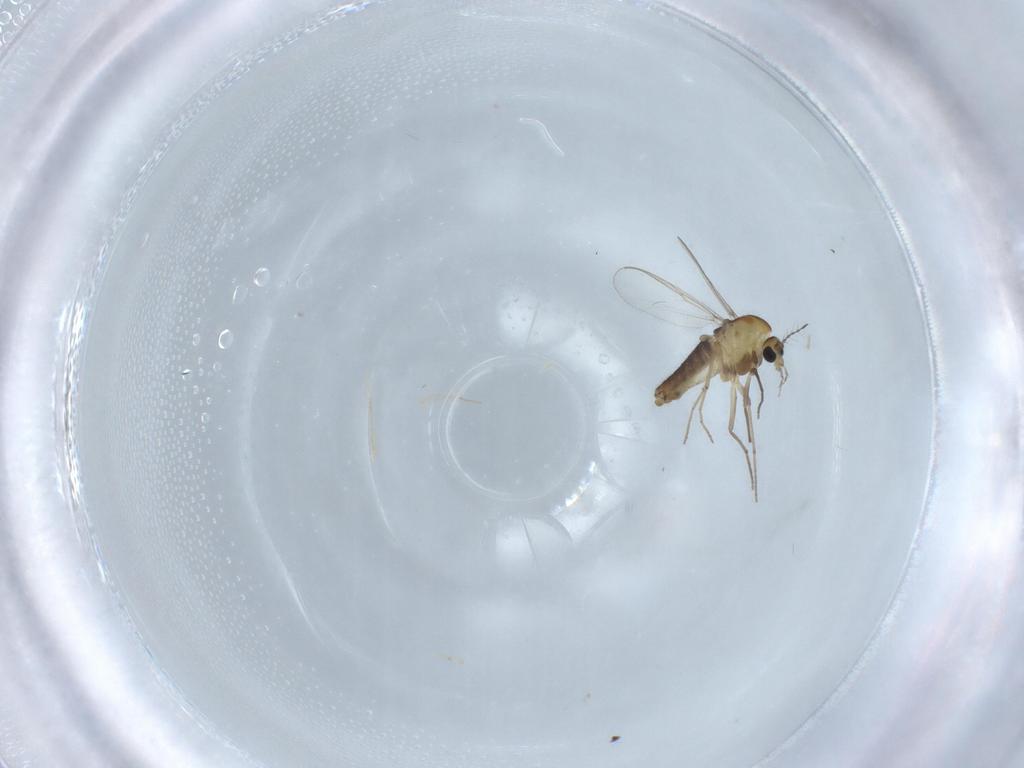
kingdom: Animalia
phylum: Arthropoda
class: Insecta
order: Diptera
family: Chironomidae
